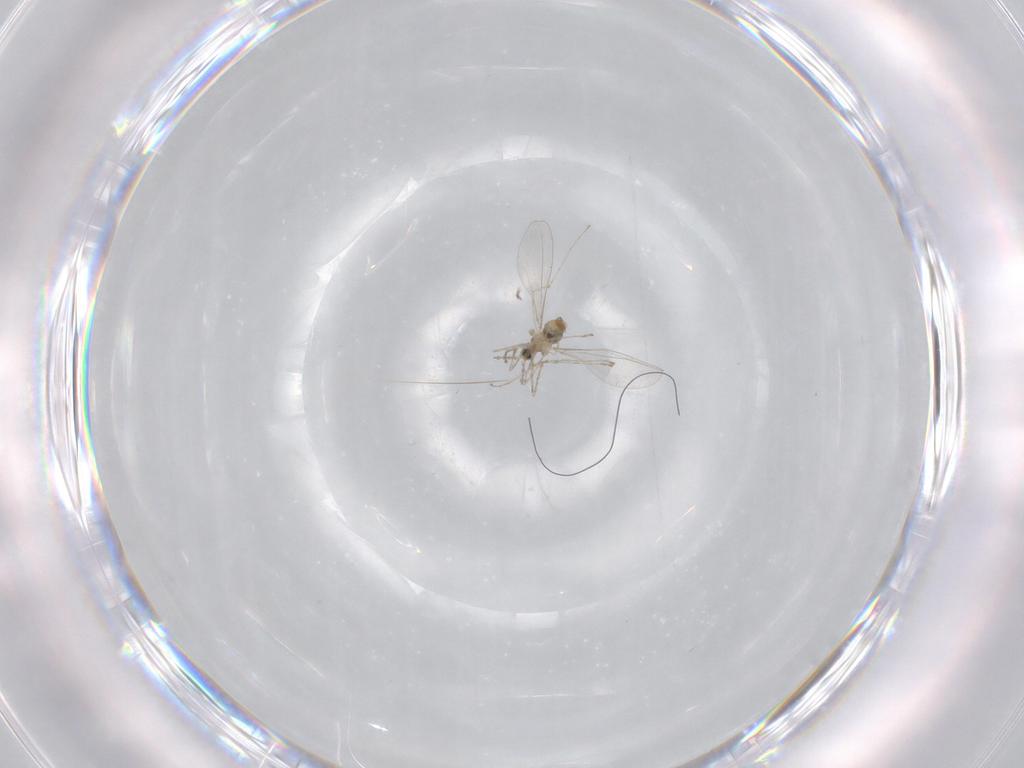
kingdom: Animalia
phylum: Arthropoda
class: Insecta
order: Diptera
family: Cecidomyiidae
